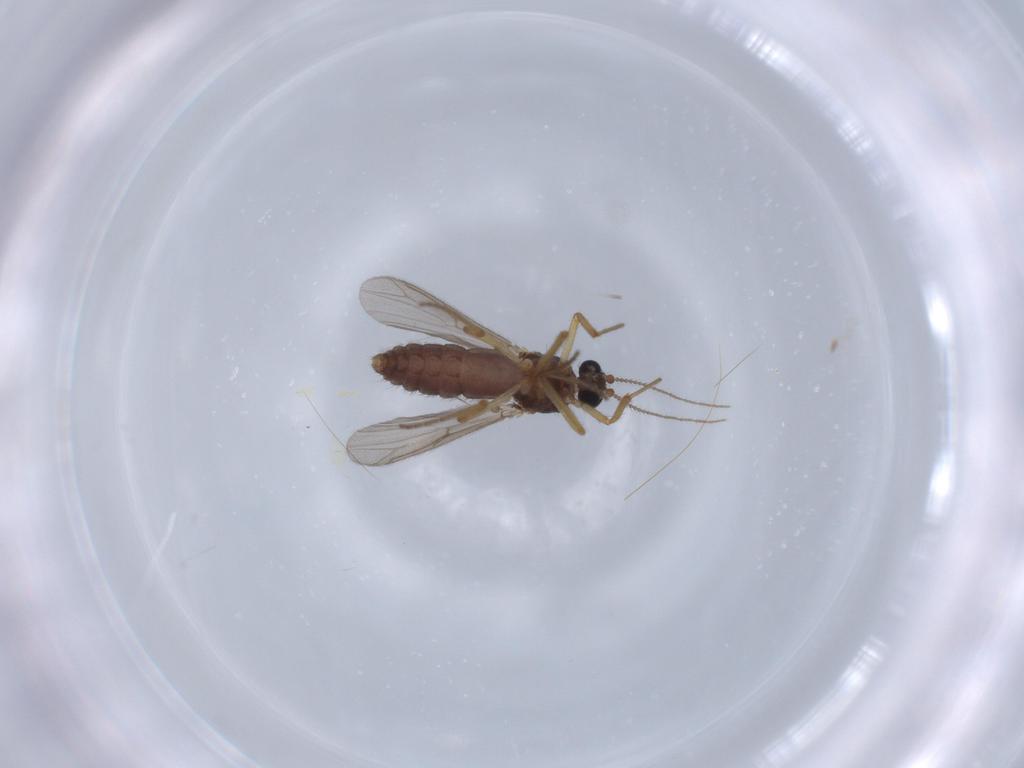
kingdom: Animalia
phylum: Arthropoda
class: Insecta
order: Diptera
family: Ceratopogonidae
